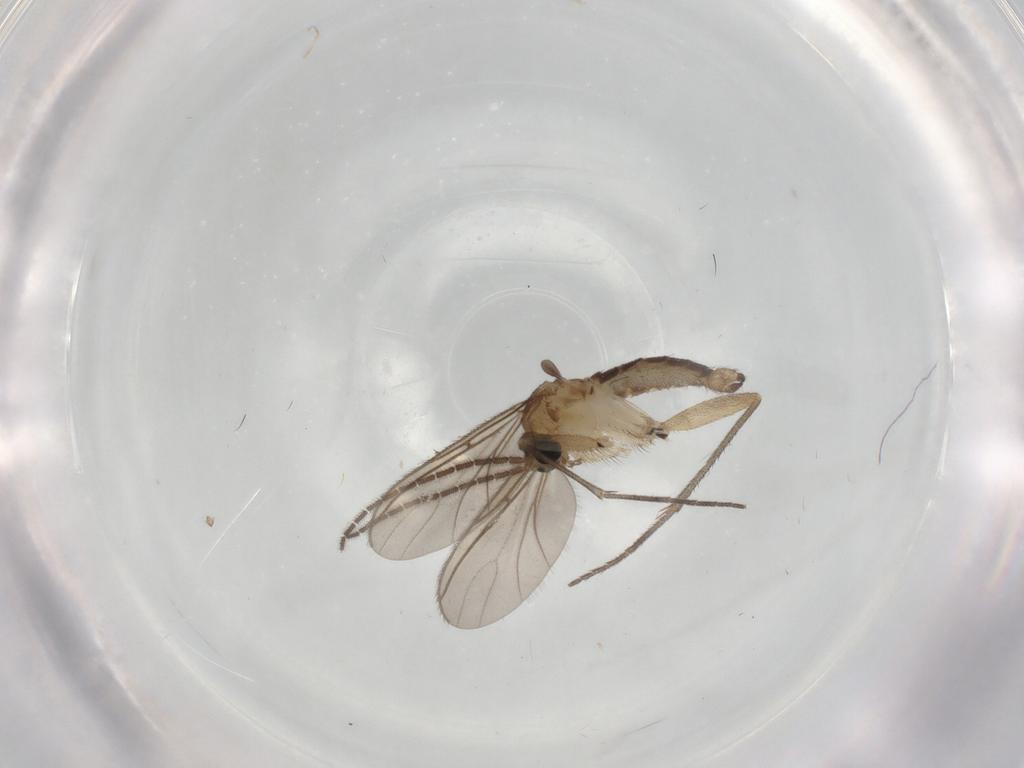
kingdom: Animalia
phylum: Arthropoda
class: Insecta
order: Diptera
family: Sciaridae
